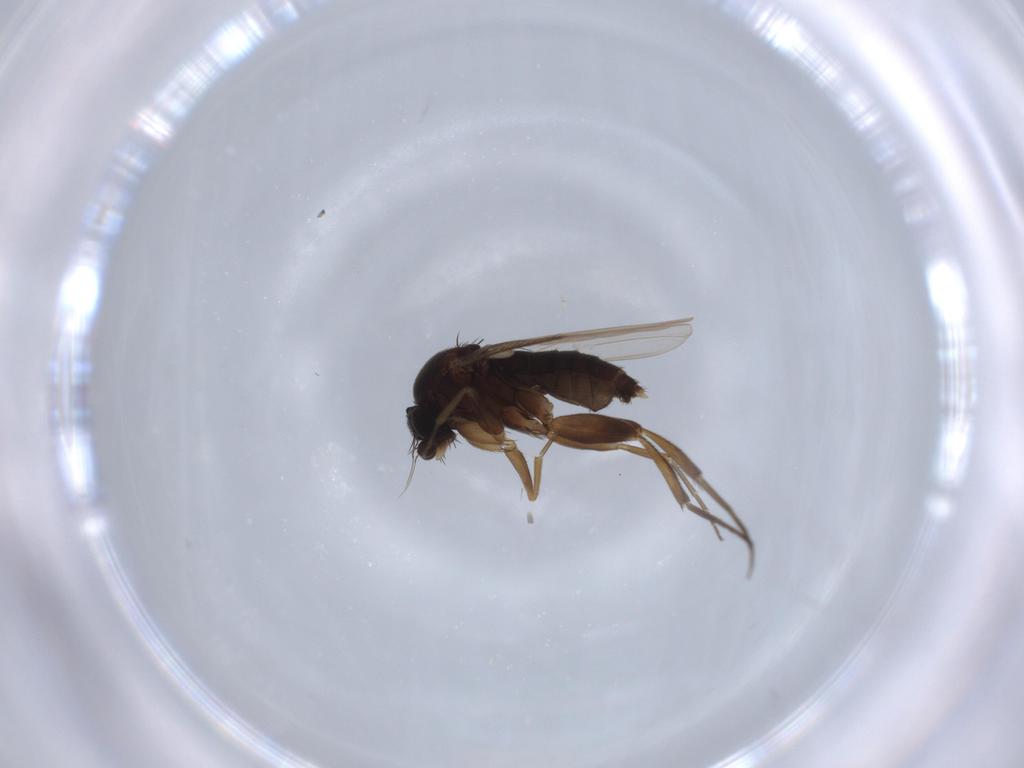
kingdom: Animalia
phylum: Arthropoda
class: Insecta
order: Diptera
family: Phoridae
